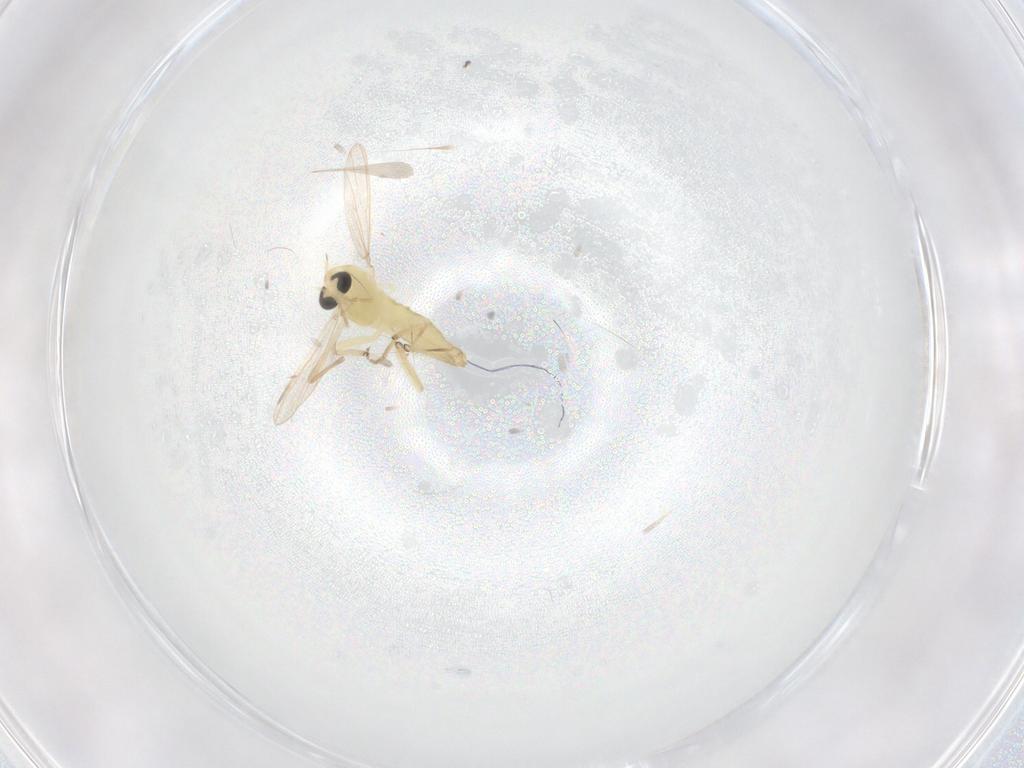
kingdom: Animalia
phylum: Arthropoda
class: Insecta
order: Diptera
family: Chironomidae
